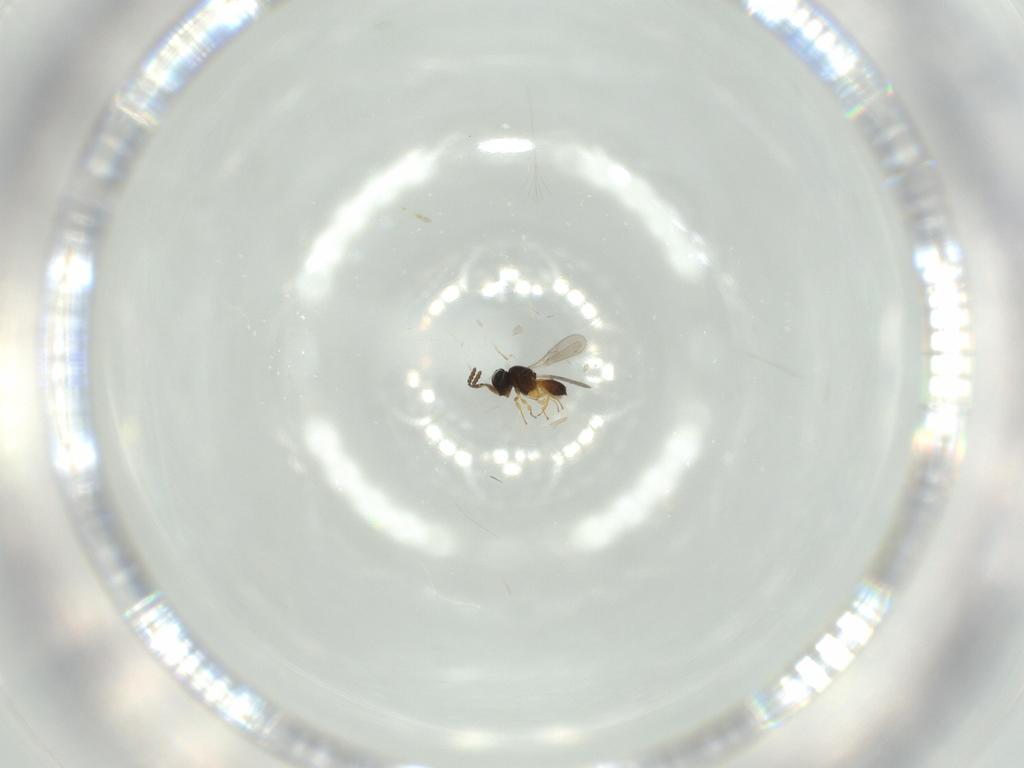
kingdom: Animalia
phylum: Arthropoda
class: Insecta
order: Hymenoptera
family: Scelionidae
